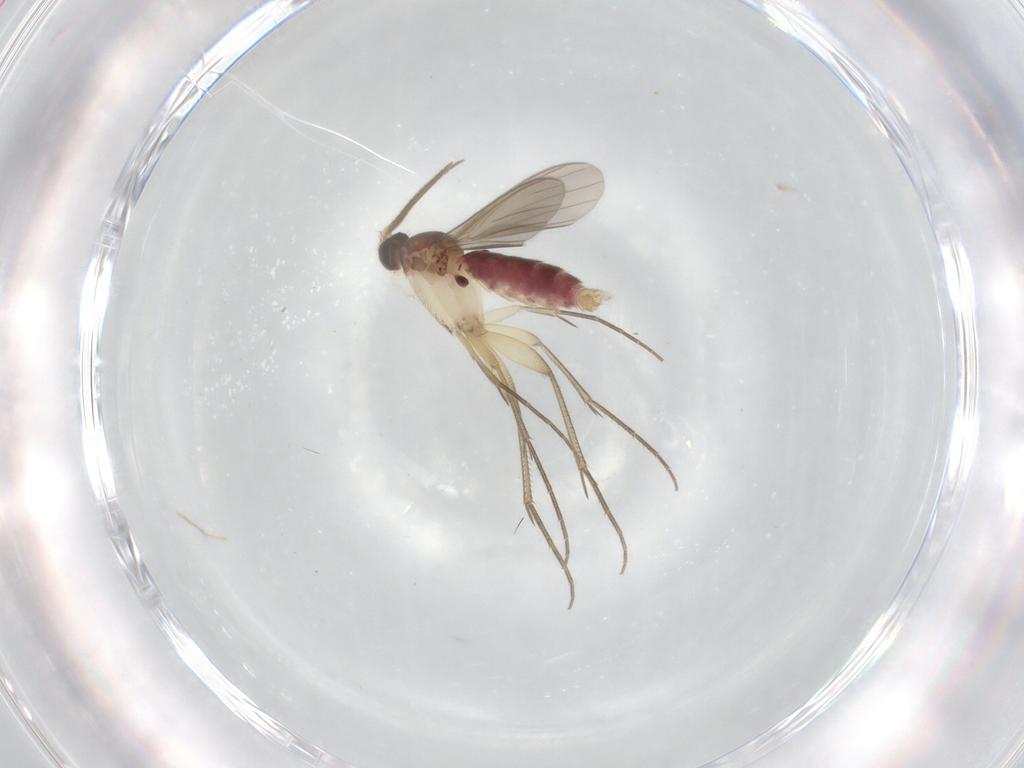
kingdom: Animalia
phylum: Arthropoda
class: Insecta
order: Diptera
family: Mycetophilidae
